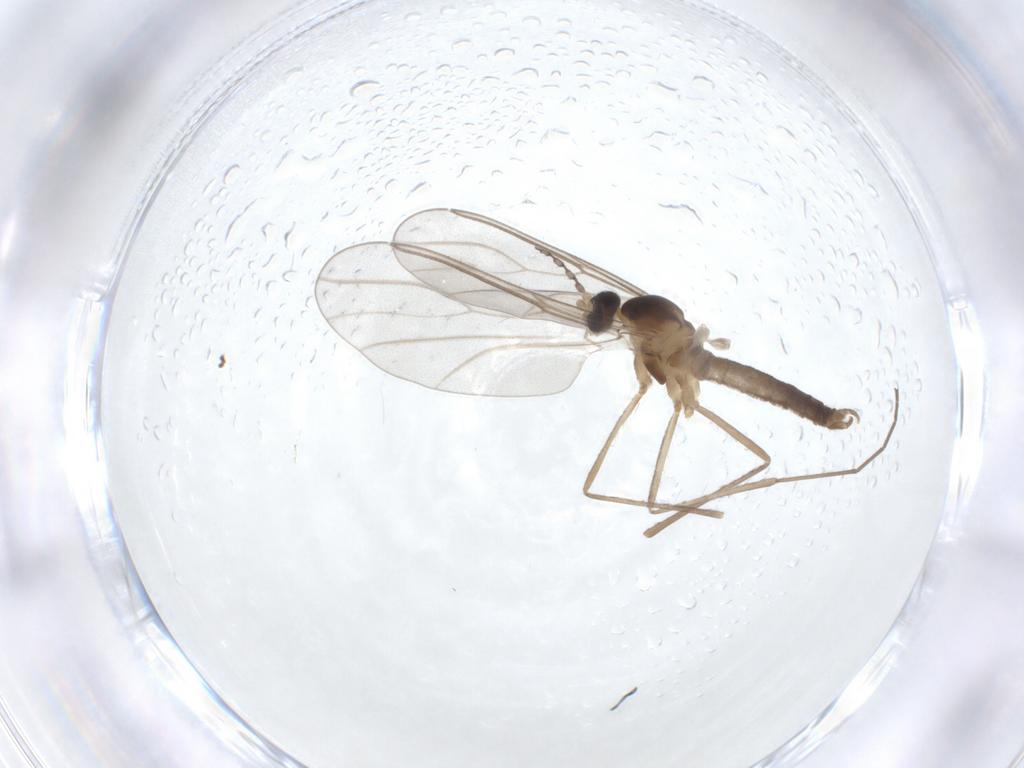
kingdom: Animalia
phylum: Arthropoda
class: Insecta
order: Diptera
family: Cecidomyiidae
